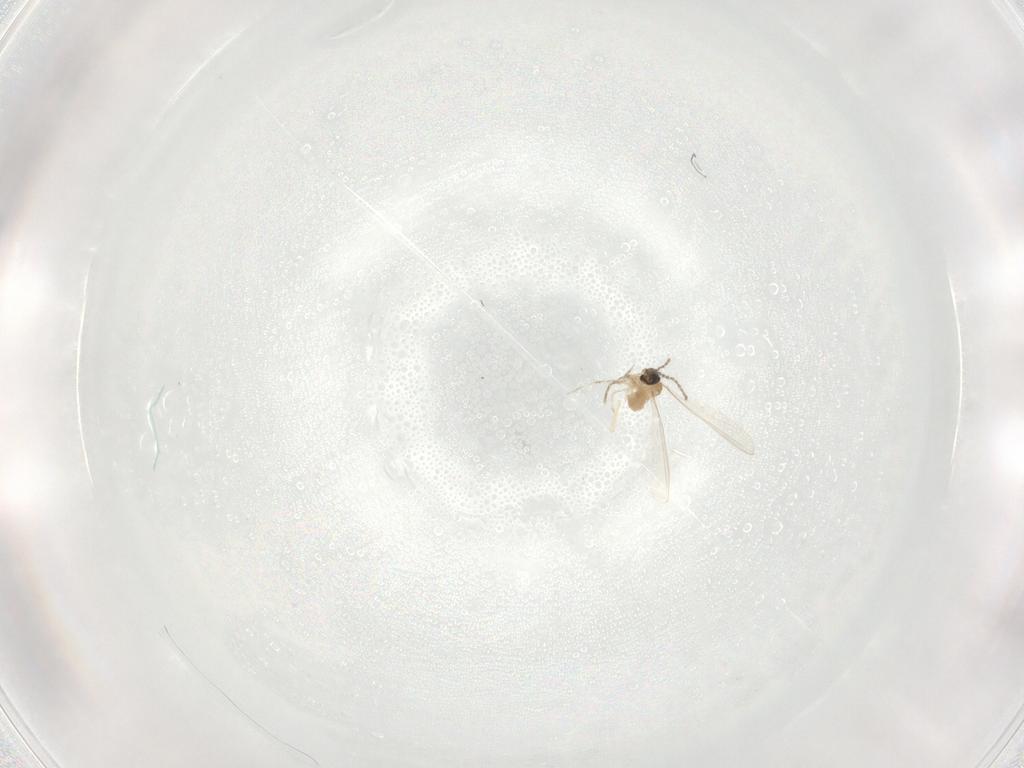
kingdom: Animalia
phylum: Arthropoda
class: Insecta
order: Diptera
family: Cecidomyiidae
